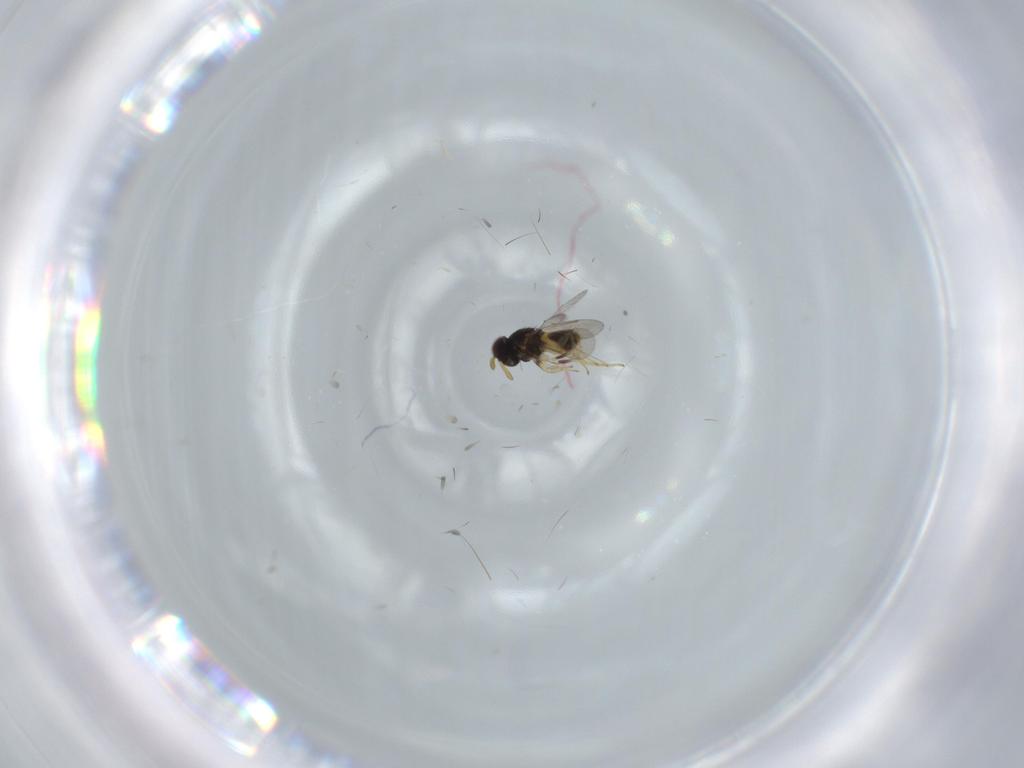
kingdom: Animalia
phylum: Arthropoda
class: Insecta
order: Hymenoptera
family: Aphelinidae
